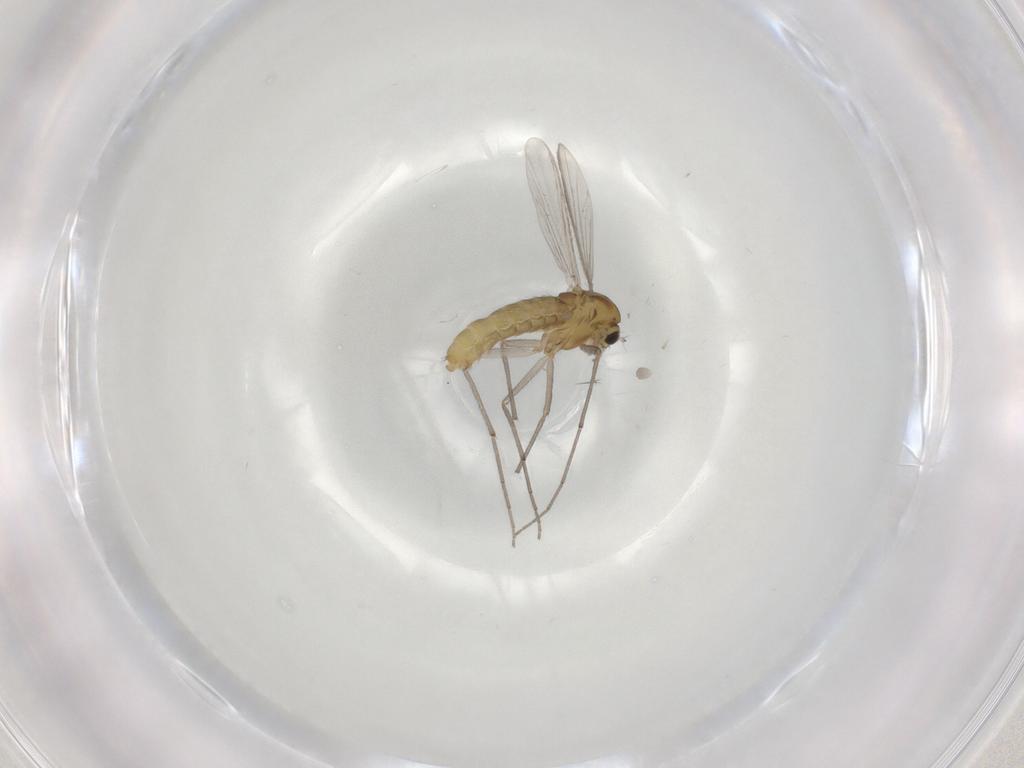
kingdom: Animalia
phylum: Arthropoda
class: Insecta
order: Diptera
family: Chironomidae
